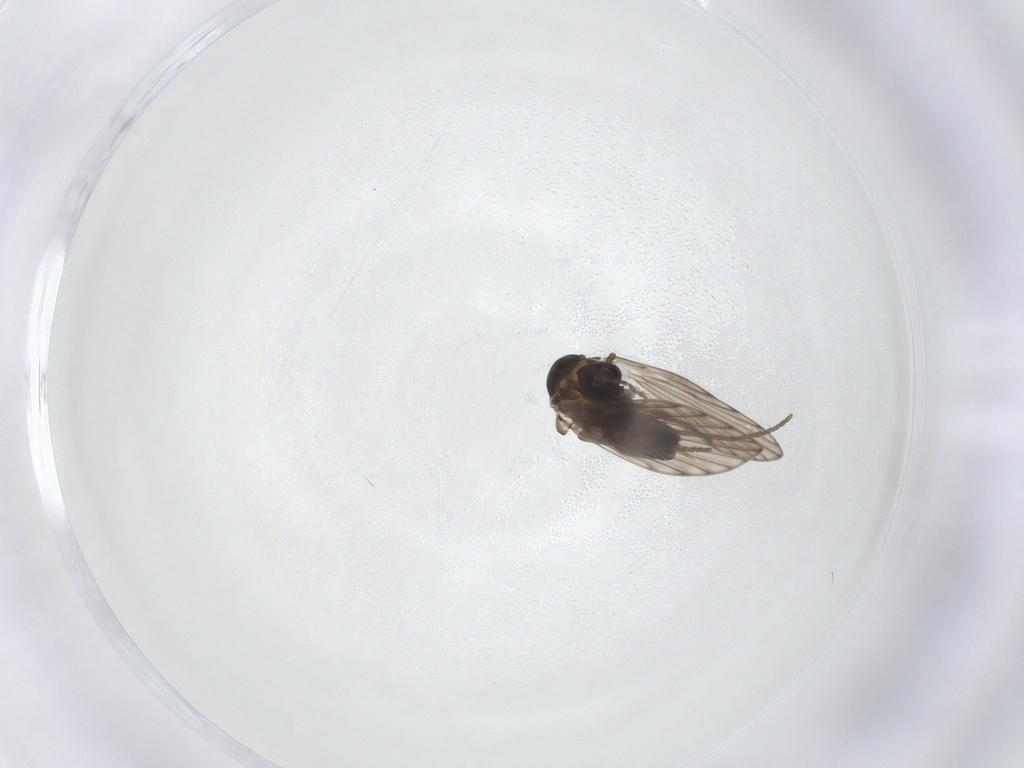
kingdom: Animalia
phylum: Arthropoda
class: Insecta
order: Diptera
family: Psychodidae
